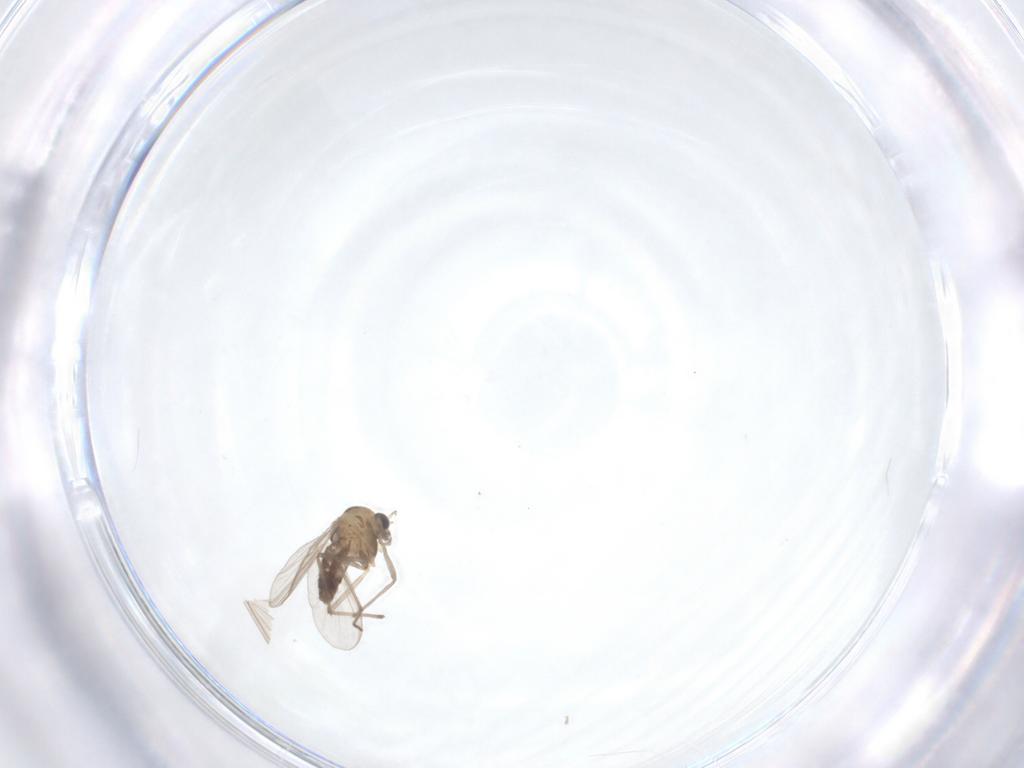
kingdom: Animalia
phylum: Arthropoda
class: Insecta
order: Diptera
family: Chironomidae
